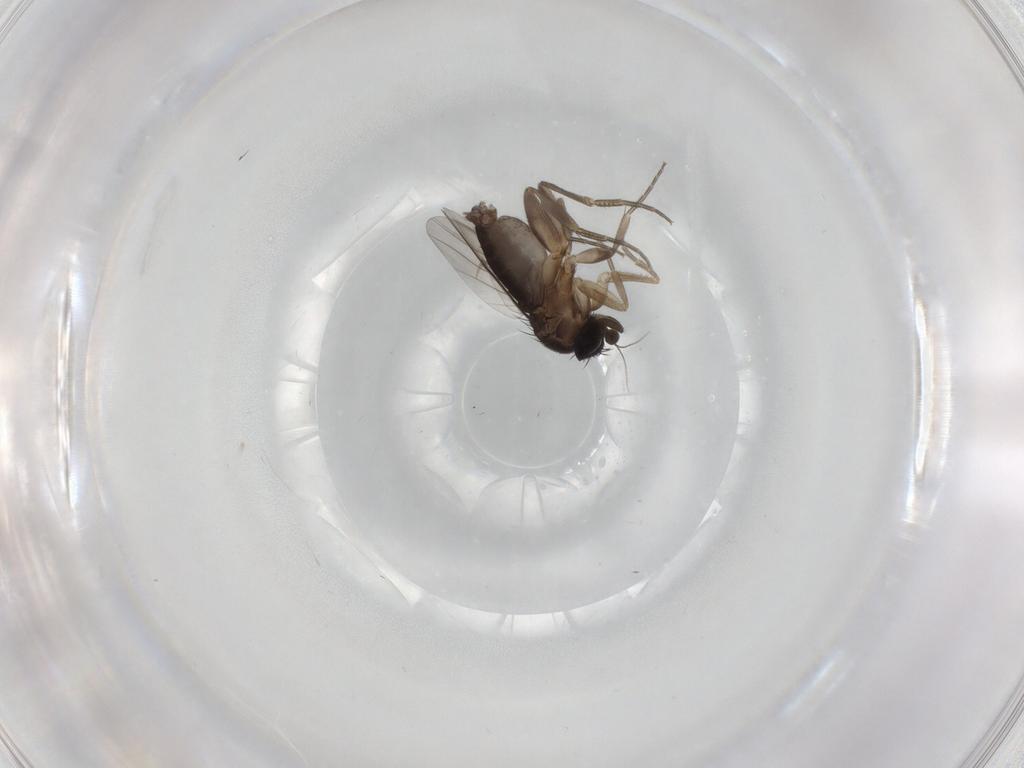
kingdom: Animalia
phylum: Arthropoda
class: Insecta
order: Diptera
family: Phoridae
